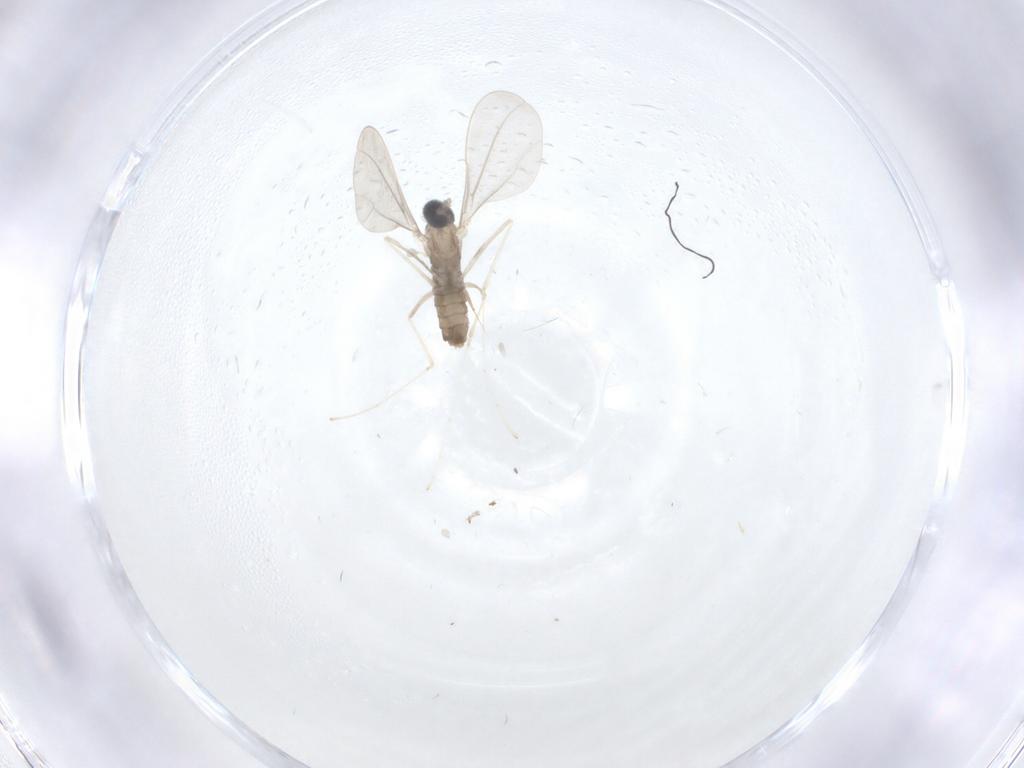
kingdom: Animalia
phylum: Arthropoda
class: Insecta
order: Diptera
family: Cecidomyiidae
